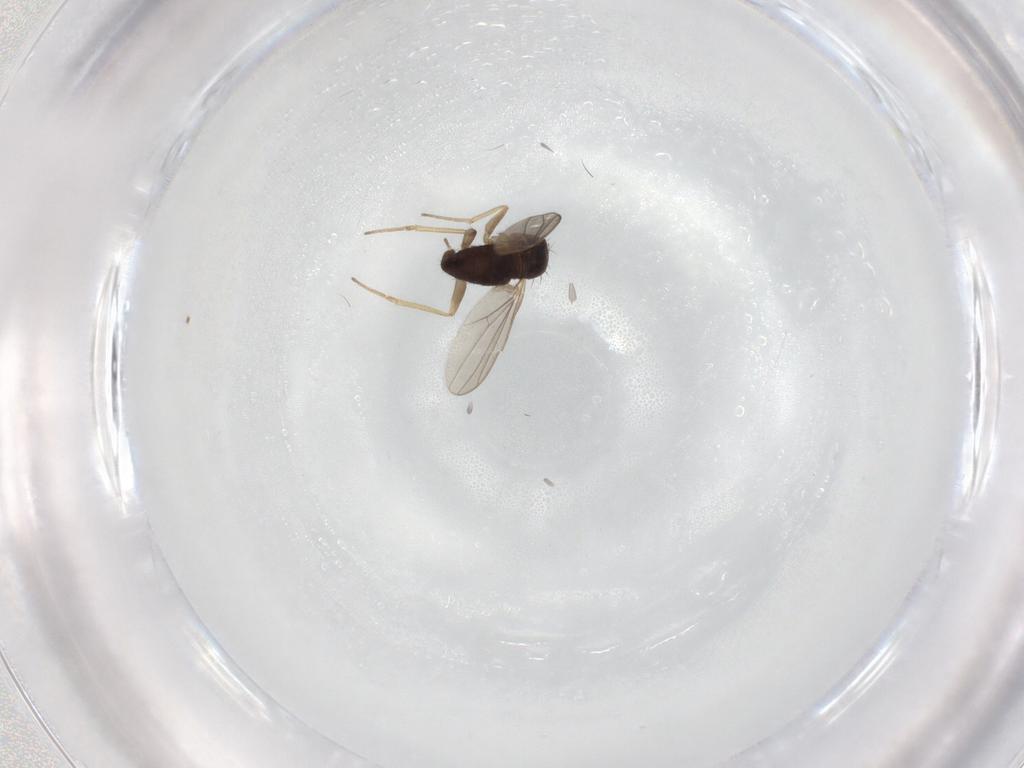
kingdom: Animalia
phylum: Arthropoda
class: Insecta
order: Diptera
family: Dolichopodidae
